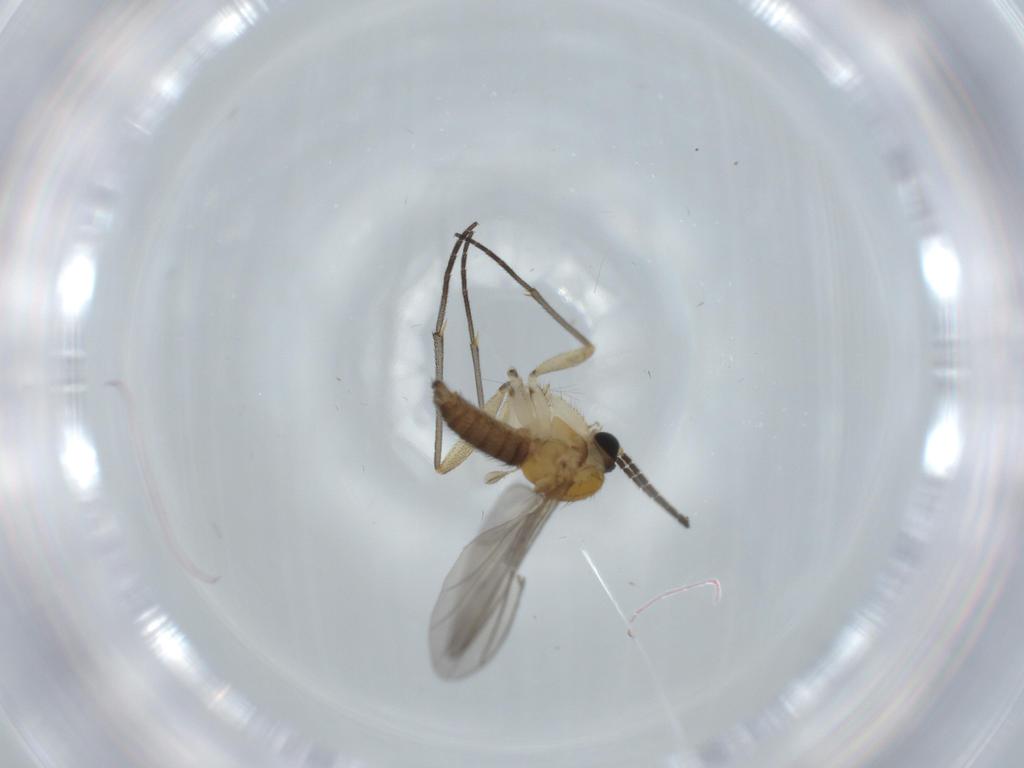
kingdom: Animalia
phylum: Arthropoda
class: Insecta
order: Diptera
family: Sciaridae
